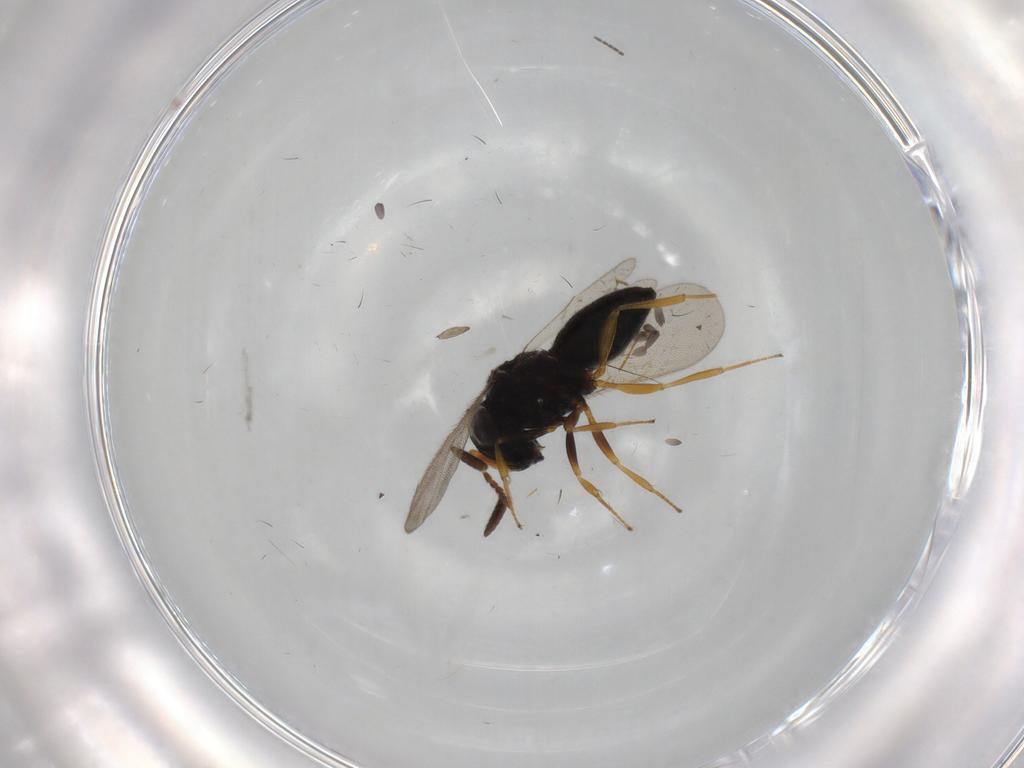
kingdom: Animalia
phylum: Arthropoda
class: Insecta
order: Hymenoptera
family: Scelionidae
